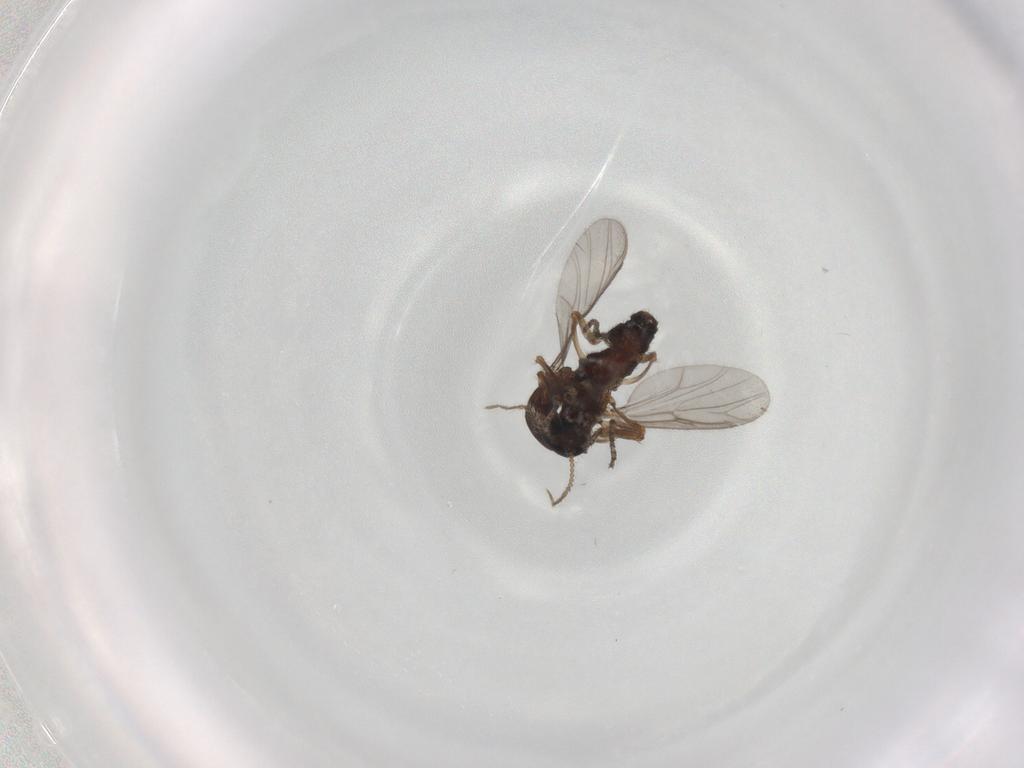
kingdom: Animalia
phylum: Arthropoda
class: Insecta
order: Diptera
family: Ceratopogonidae
